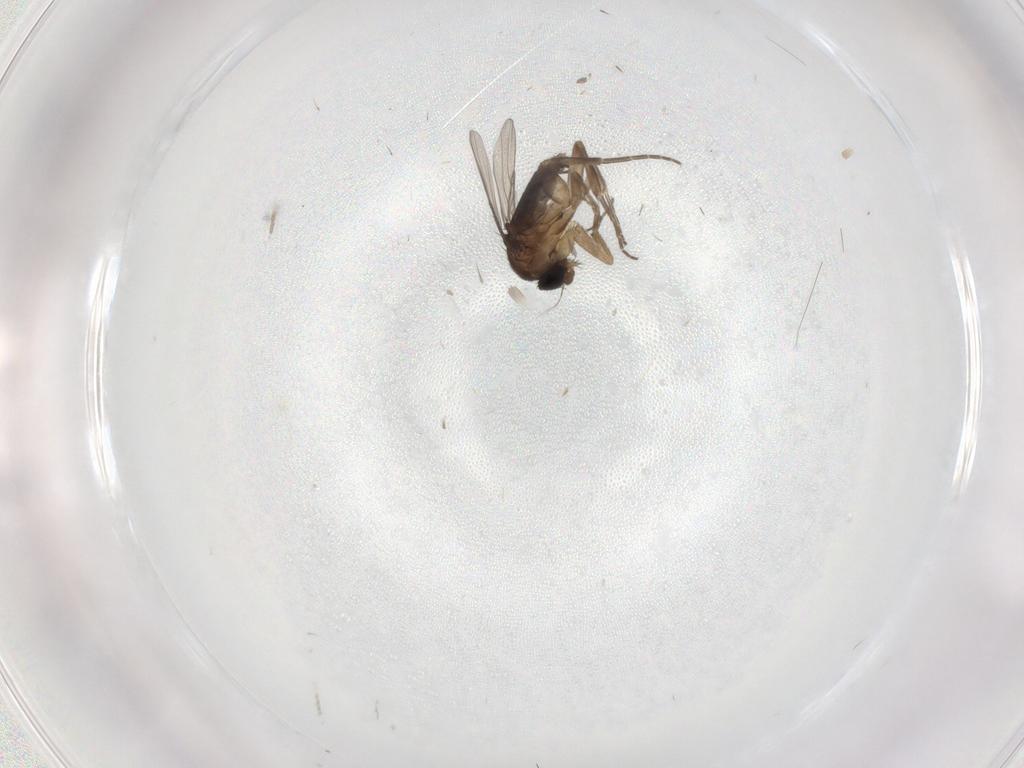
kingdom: Animalia
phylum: Arthropoda
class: Insecta
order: Diptera
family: Phoridae
